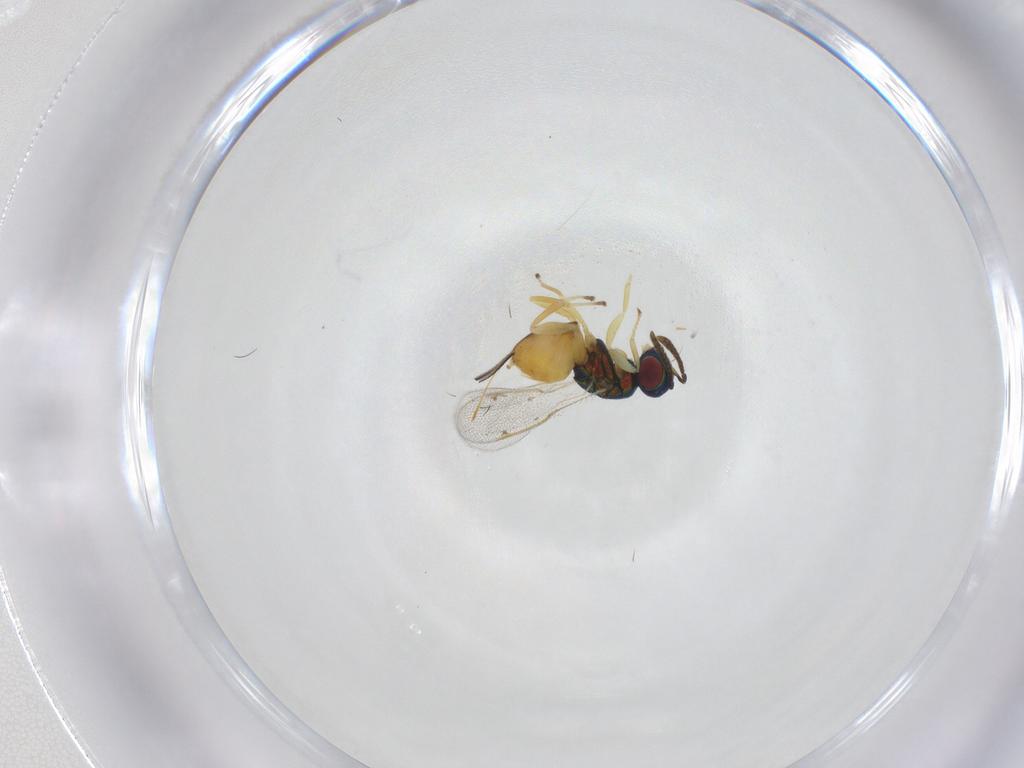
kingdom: Animalia
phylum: Arthropoda
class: Insecta
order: Hymenoptera
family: Torymidae
